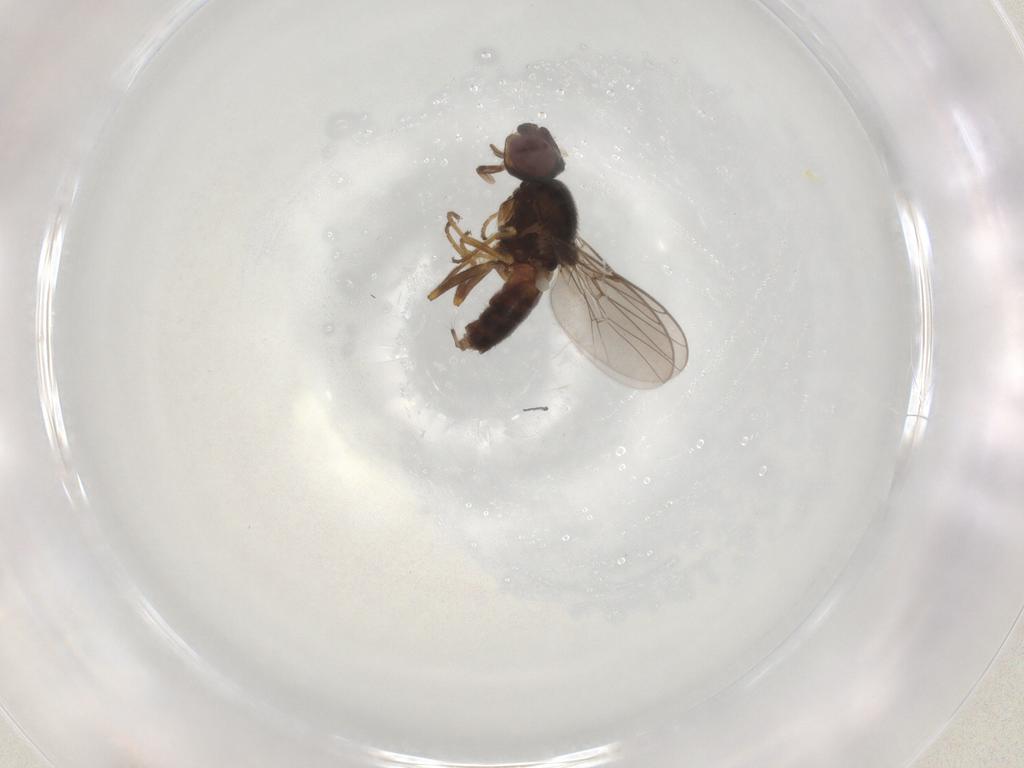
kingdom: Animalia
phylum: Arthropoda
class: Insecta
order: Diptera
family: Chloropidae
